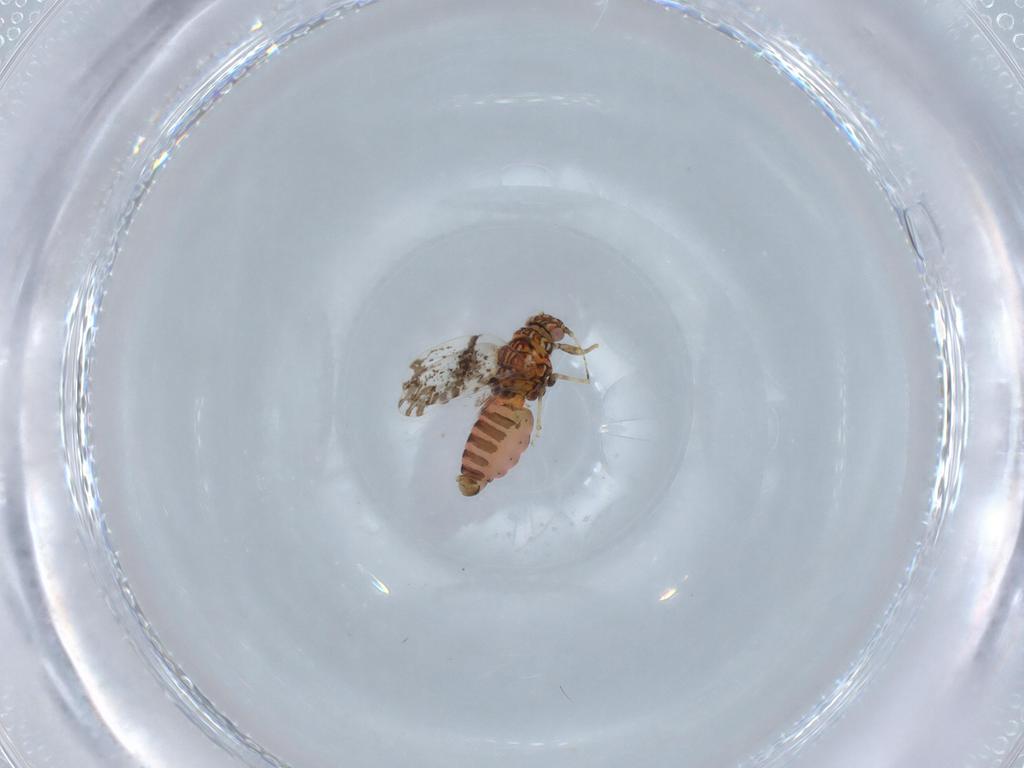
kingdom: Animalia
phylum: Arthropoda
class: Insecta
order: Hemiptera
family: Psylloidea_incertae_sedis
